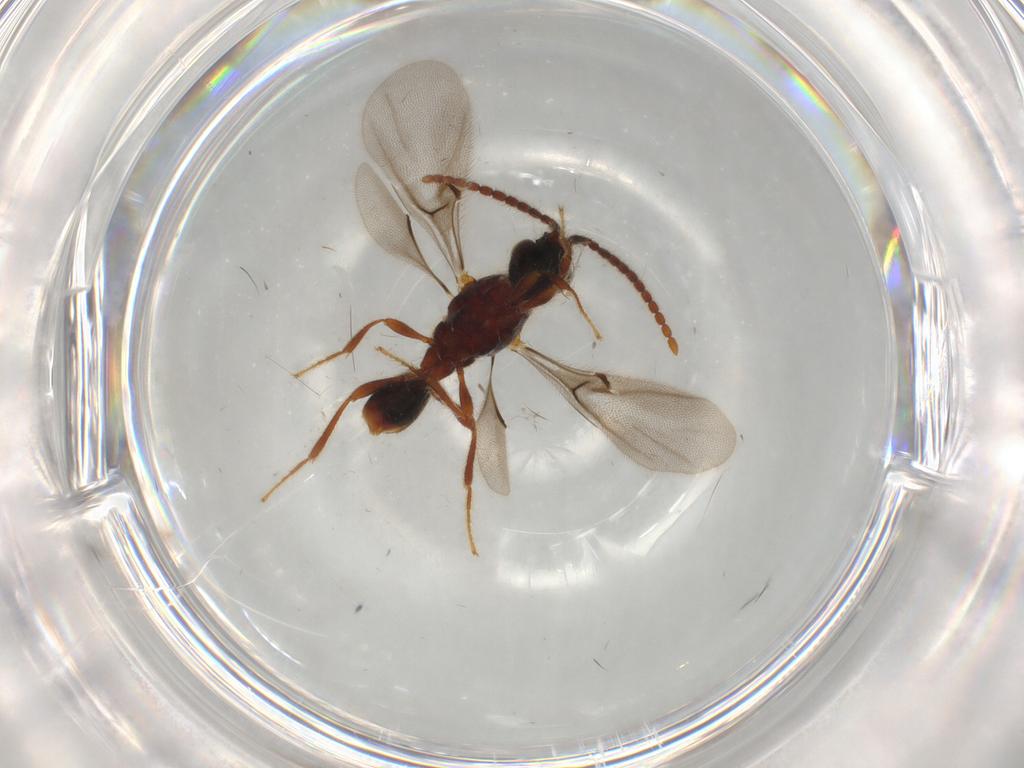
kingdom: Animalia
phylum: Arthropoda
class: Insecta
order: Hymenoptera
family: Diapriidae
